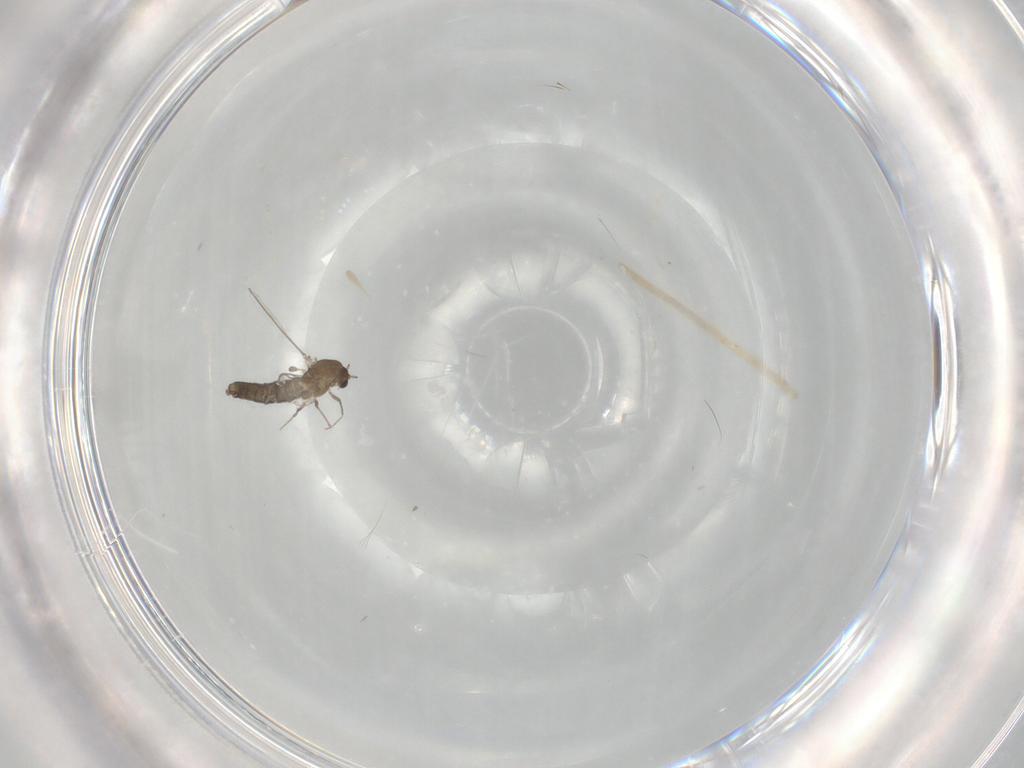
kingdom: Animalia
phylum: Arthropoda
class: Insecta
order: Diptera
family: Chironomidae
